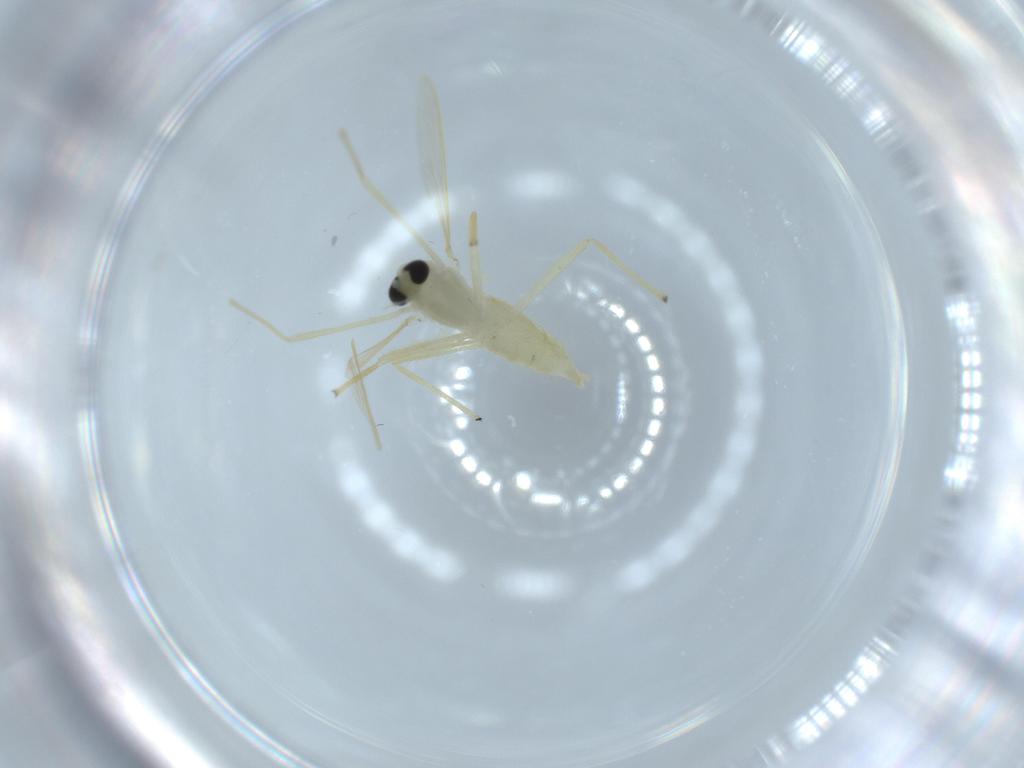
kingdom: Animalia
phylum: Arthropoda
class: Insecta
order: Diptera
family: Chironomidae
